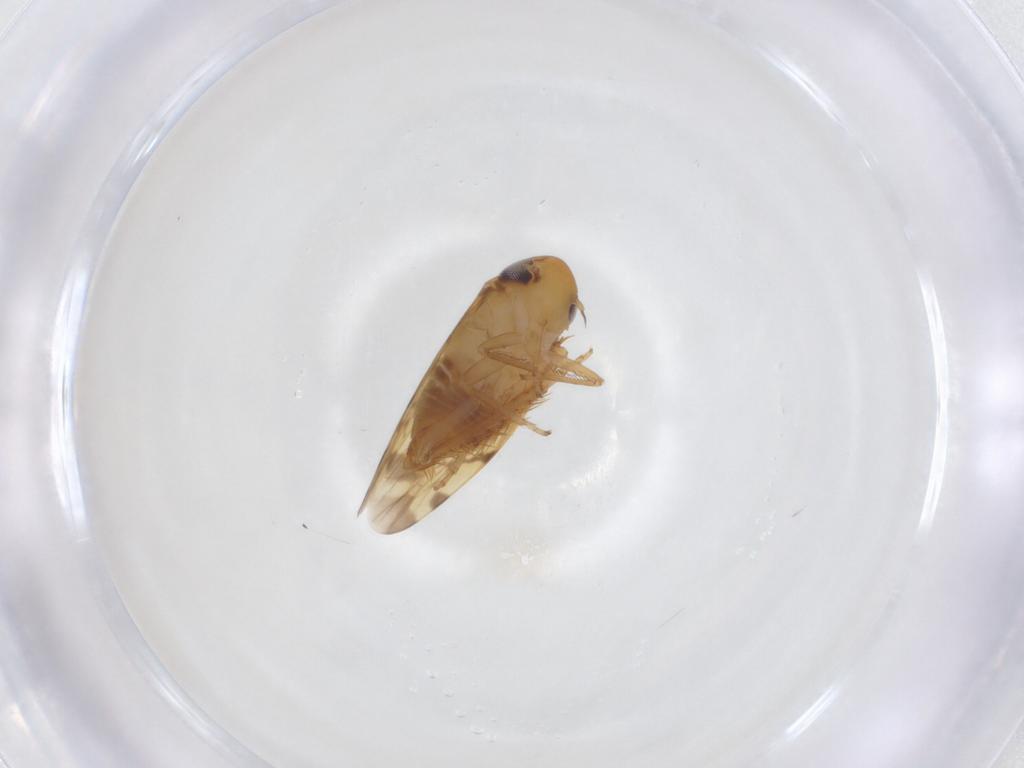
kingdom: Animalia
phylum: Arthropoda
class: Insecta
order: Hemiptera
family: Cicadellidae
